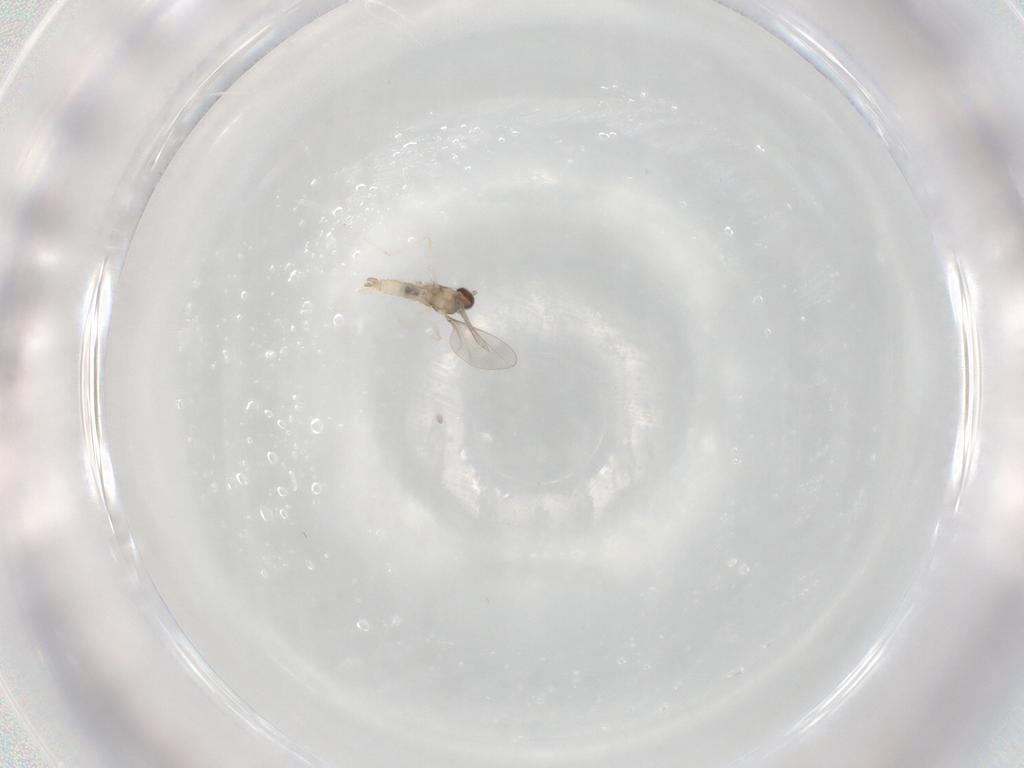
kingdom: Animalia
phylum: Arthropoda
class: Insecta
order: Diptera
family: Cecidomyiidae
